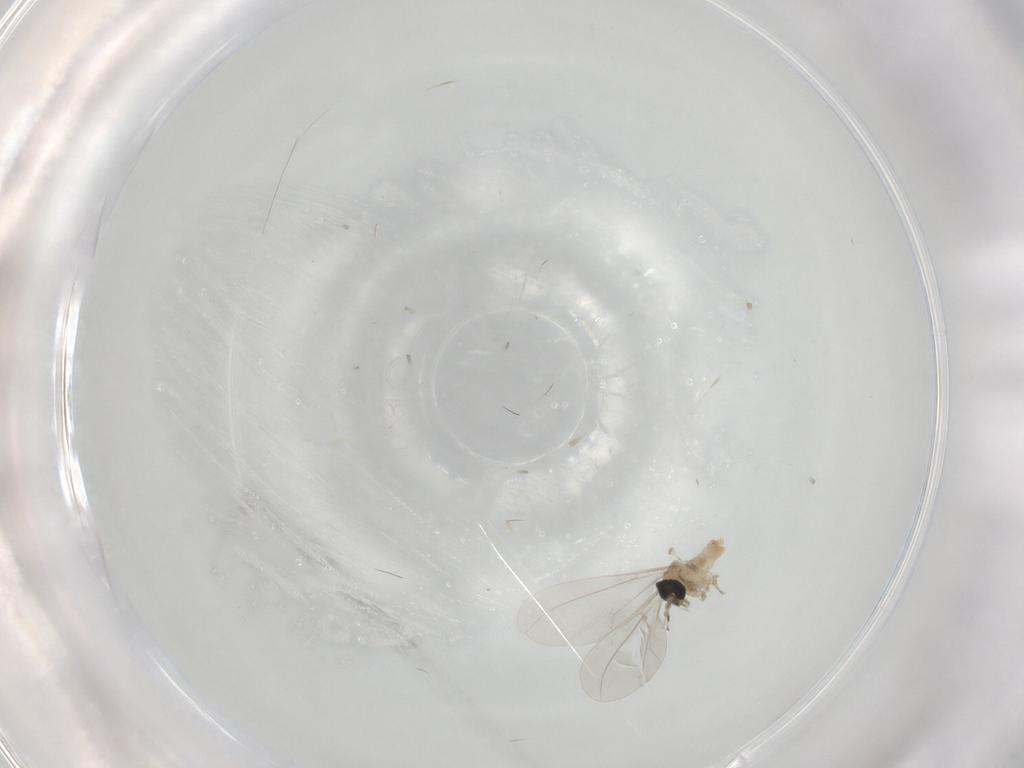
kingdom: Animalia
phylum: Arthropoda
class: Insecta
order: Diptera
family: Cecidomyiidae
